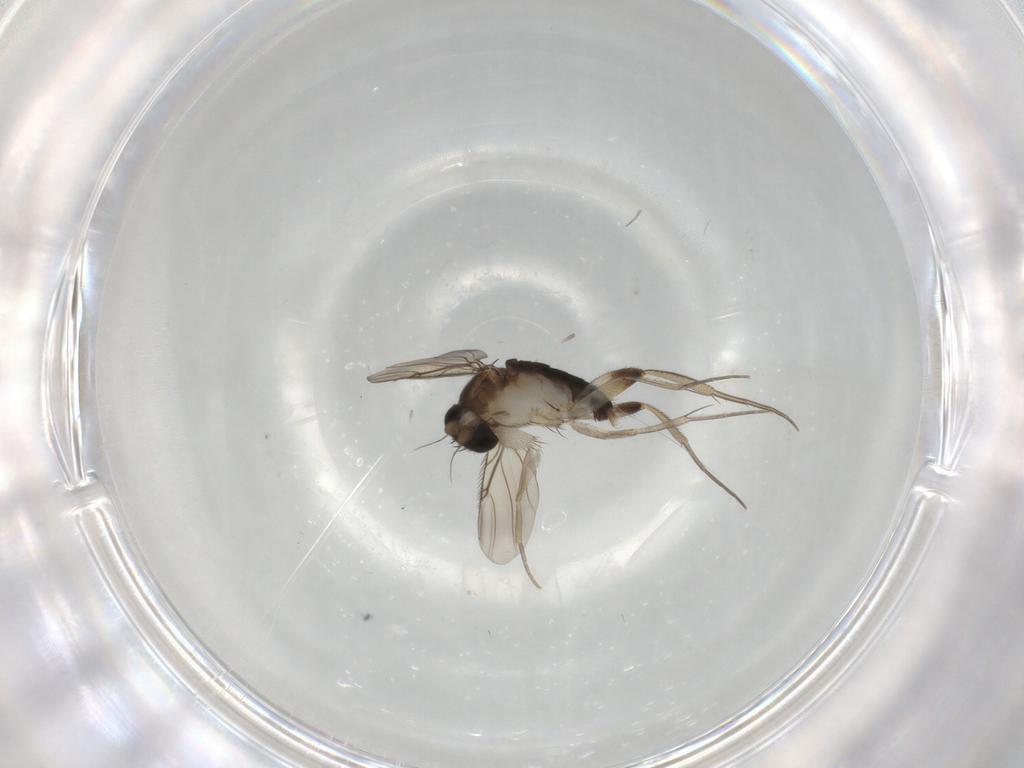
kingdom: Animalia
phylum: Arthropoda
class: Insecta
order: Diptera
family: Phoridae
